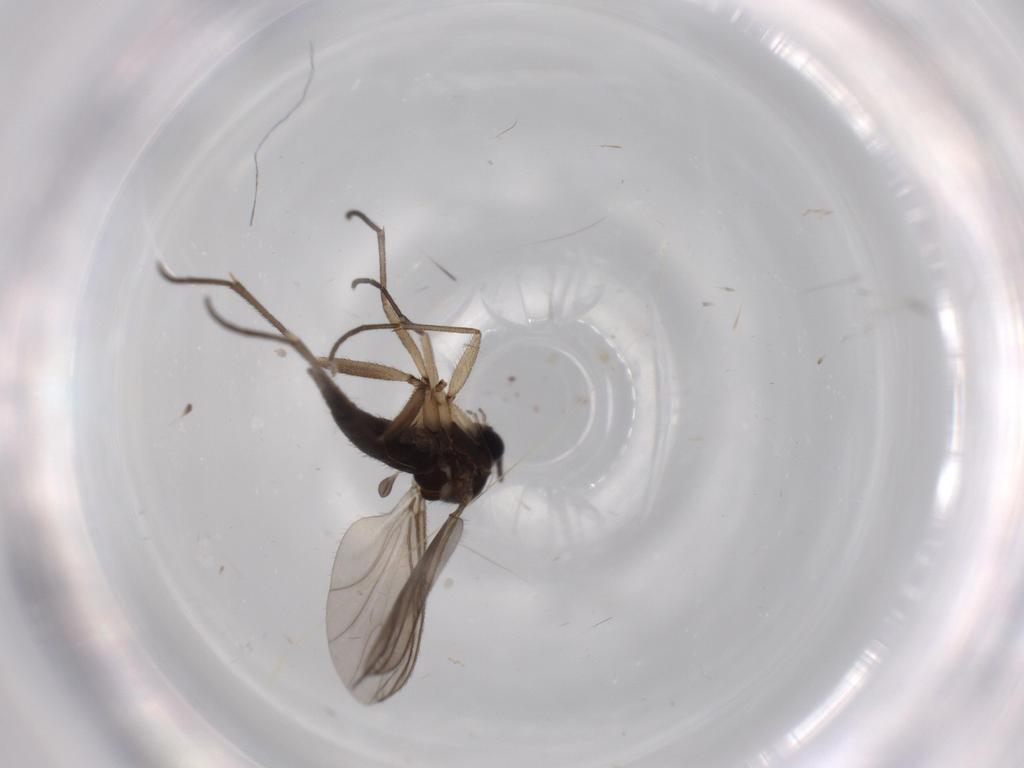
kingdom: Animalia
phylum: Arthropoda
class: Insecta
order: Diptera
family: Sciaridae
